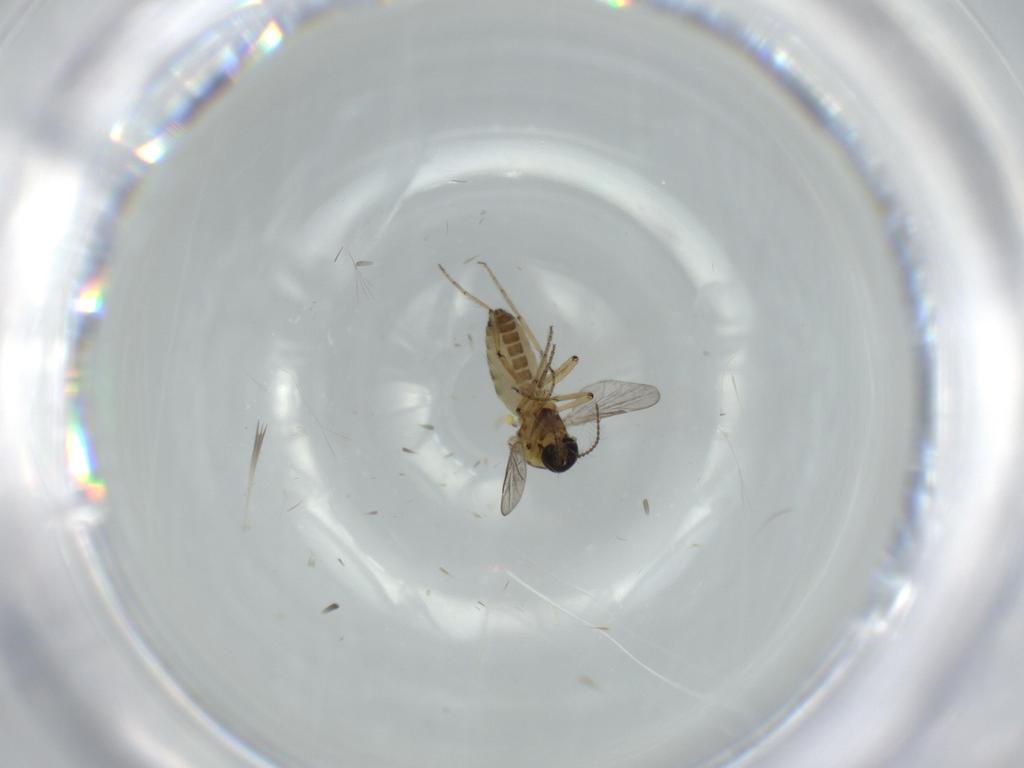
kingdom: Animalia
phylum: Arthropoda
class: Insecta
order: Diptera
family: Ceratopogonidae
